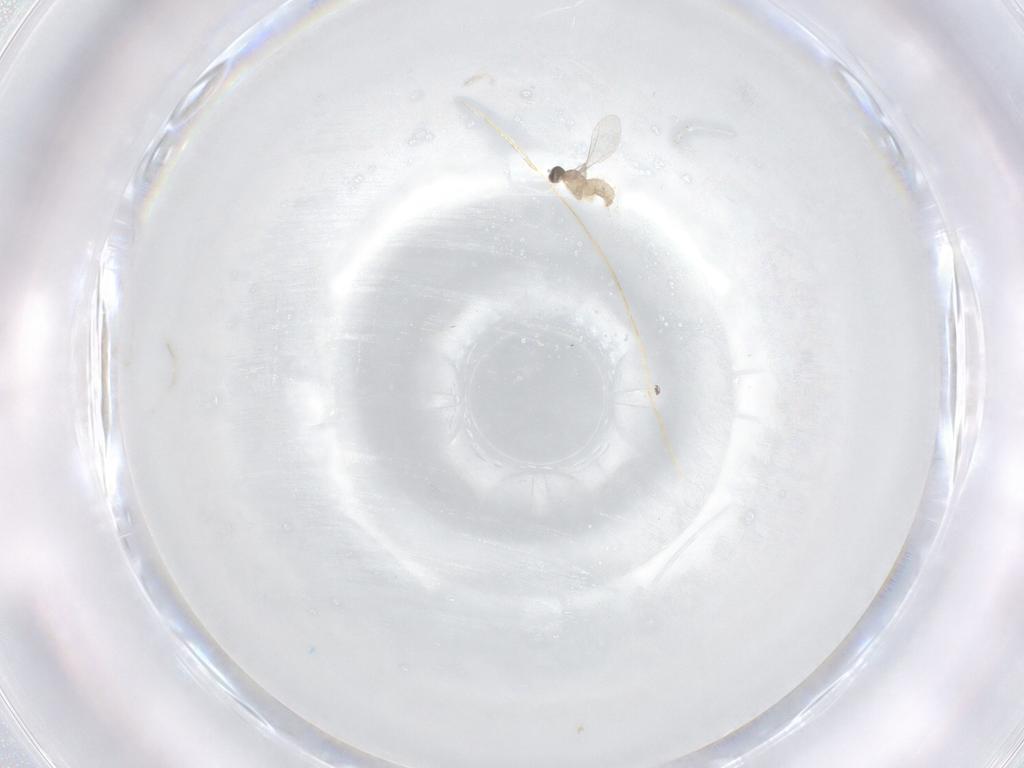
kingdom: Animalia
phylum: Arthropoda
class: Insecta
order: Diptera
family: Cecidomyiidae
